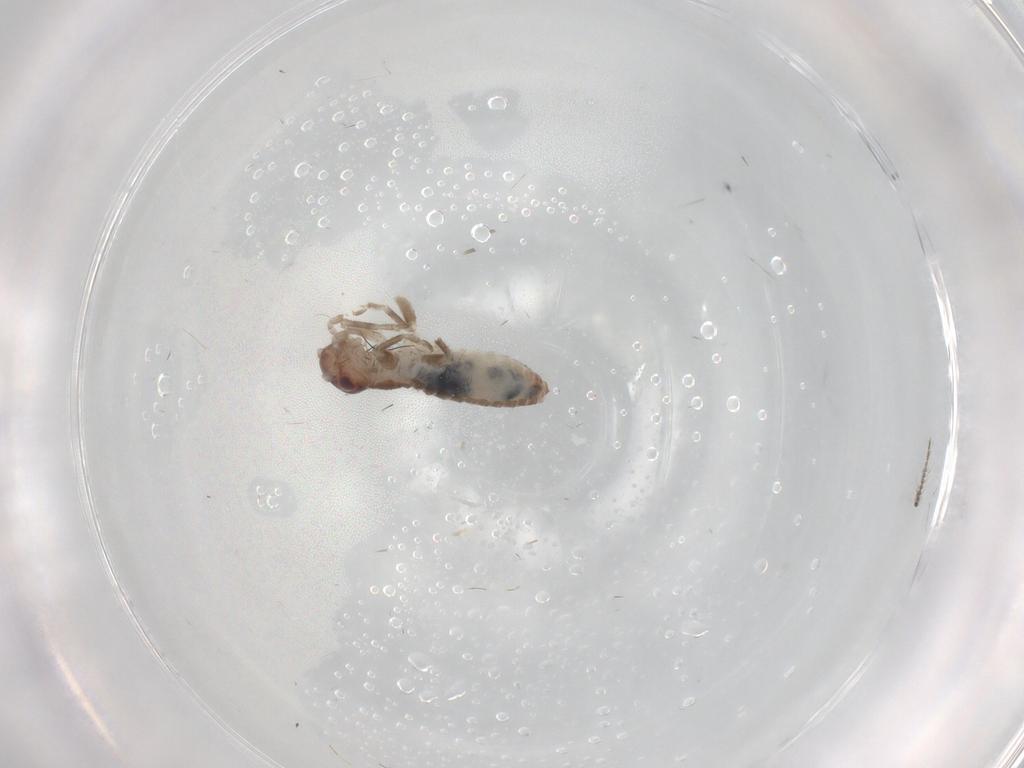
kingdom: Animalia
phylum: Arthropoda
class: Insecta
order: Orthoptera
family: Mogoplistidae
